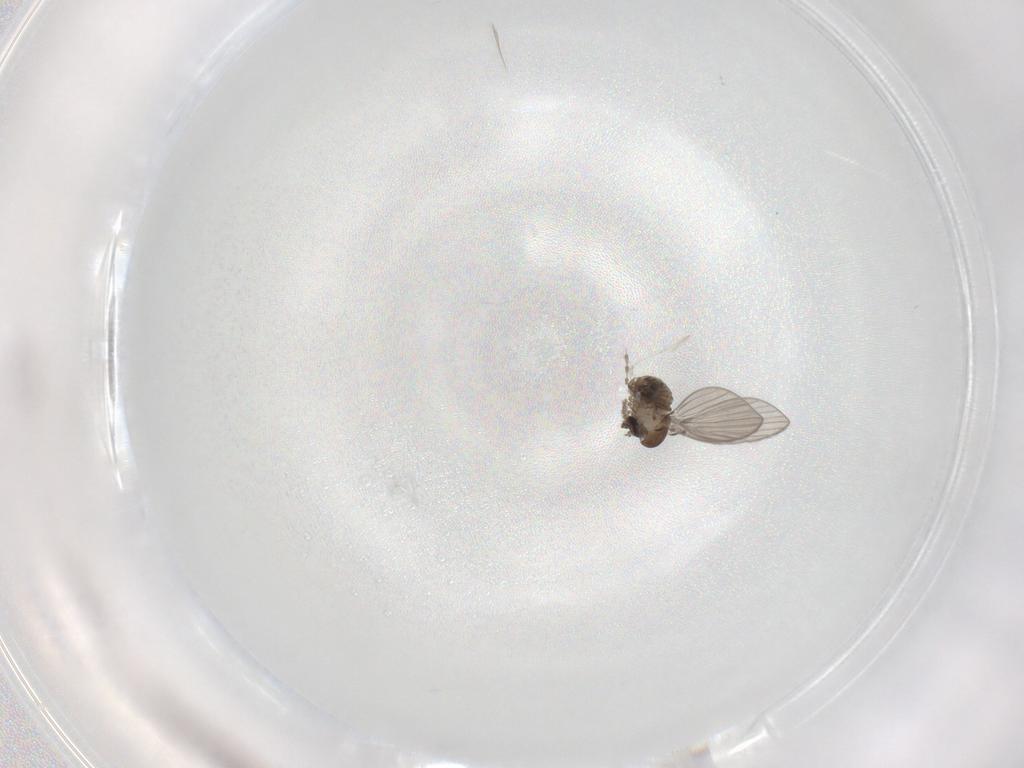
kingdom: Animalia
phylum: Arthropoda
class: Insecta
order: Diptera
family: Psychodidae
